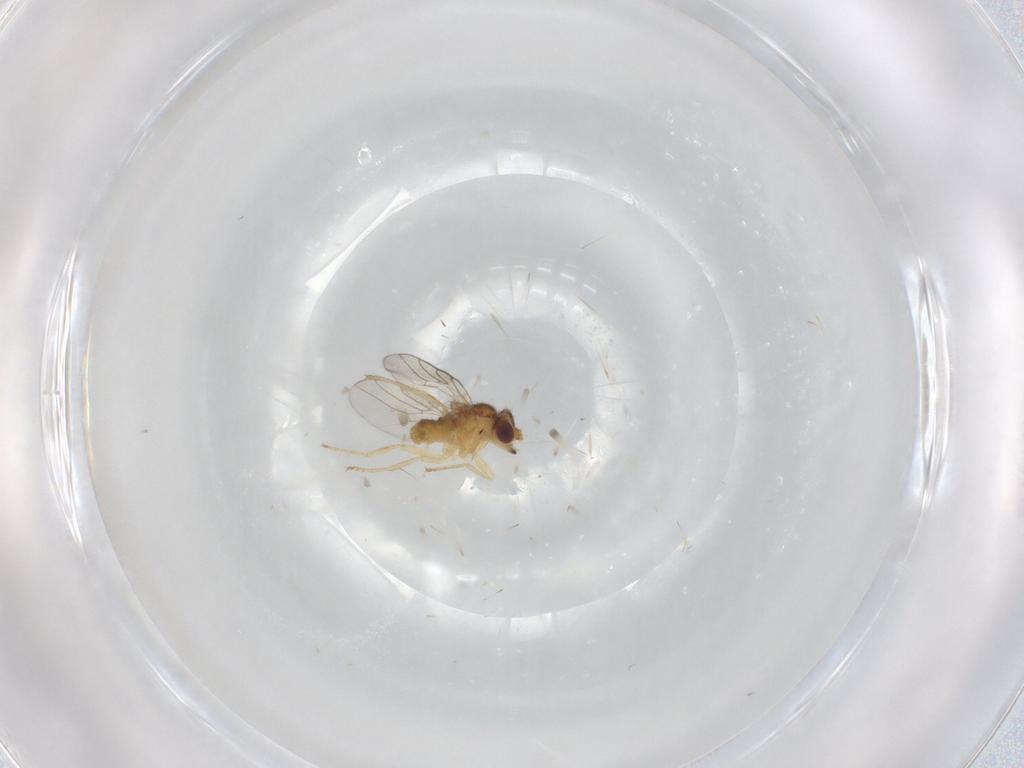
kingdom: Animalia
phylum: Arthropoda
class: Insecta
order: Diptera
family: Chloropidae
